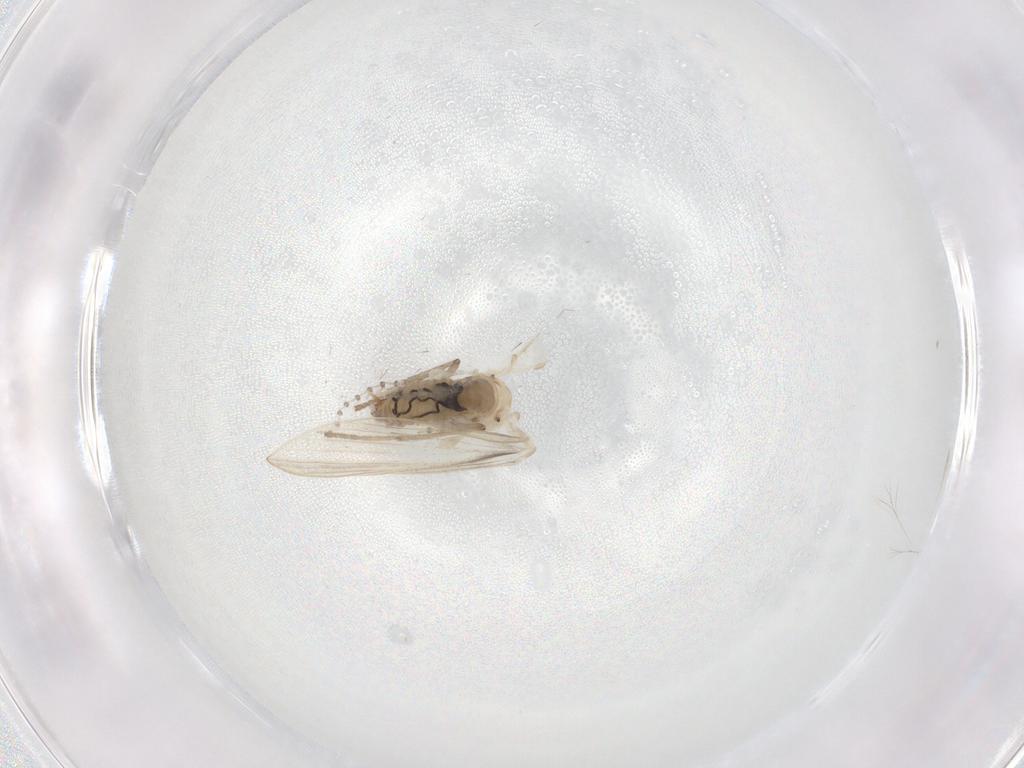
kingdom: Animalia
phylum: Arthropoda
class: Insecta
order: Diptera
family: Psychodidae
